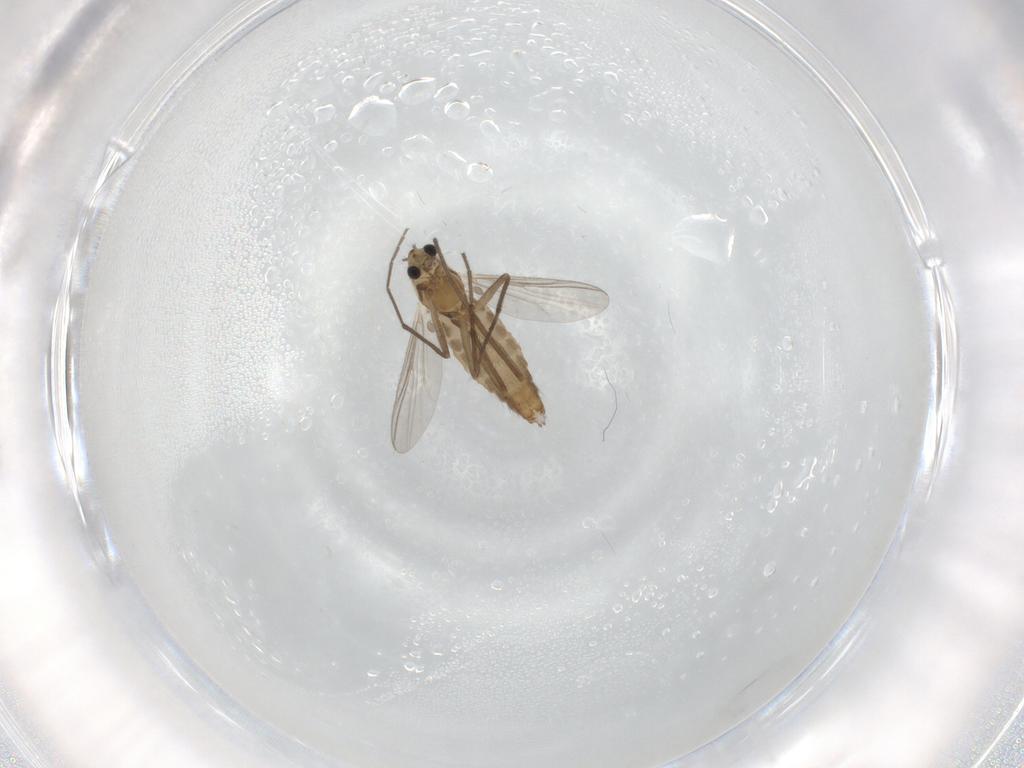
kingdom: Animalia
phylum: Arthropoda
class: Insecta
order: Diptera
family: Chironomidae
